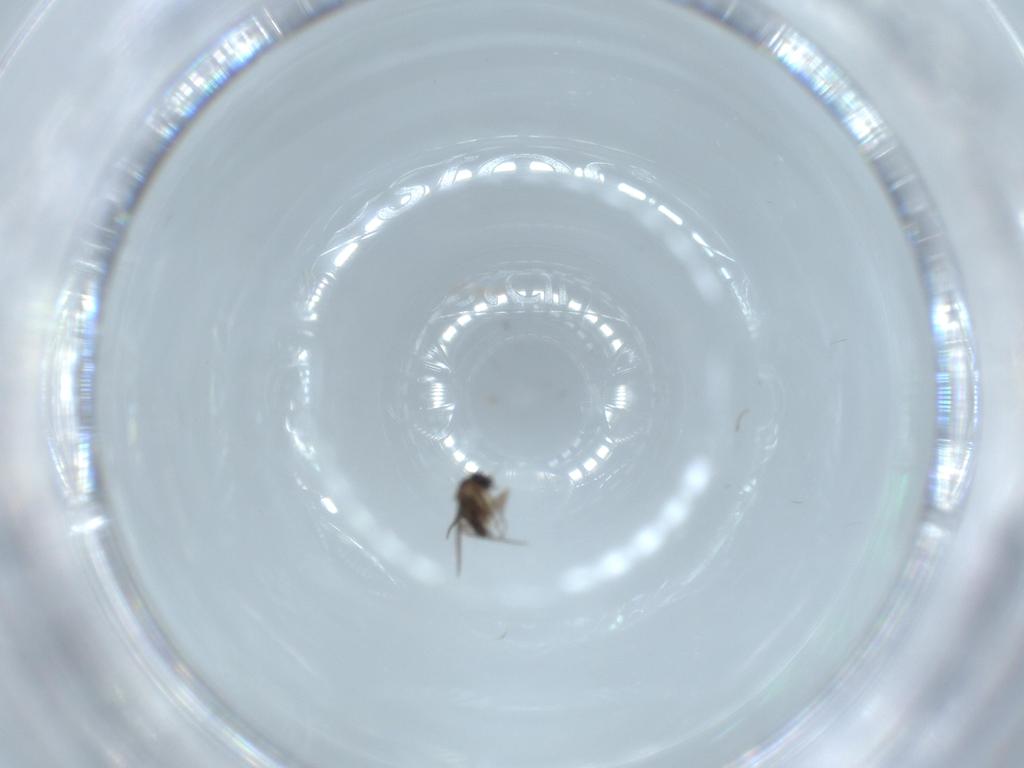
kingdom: Animalia
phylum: Arthropoda
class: Insecta
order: Diptera
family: Phoridae
